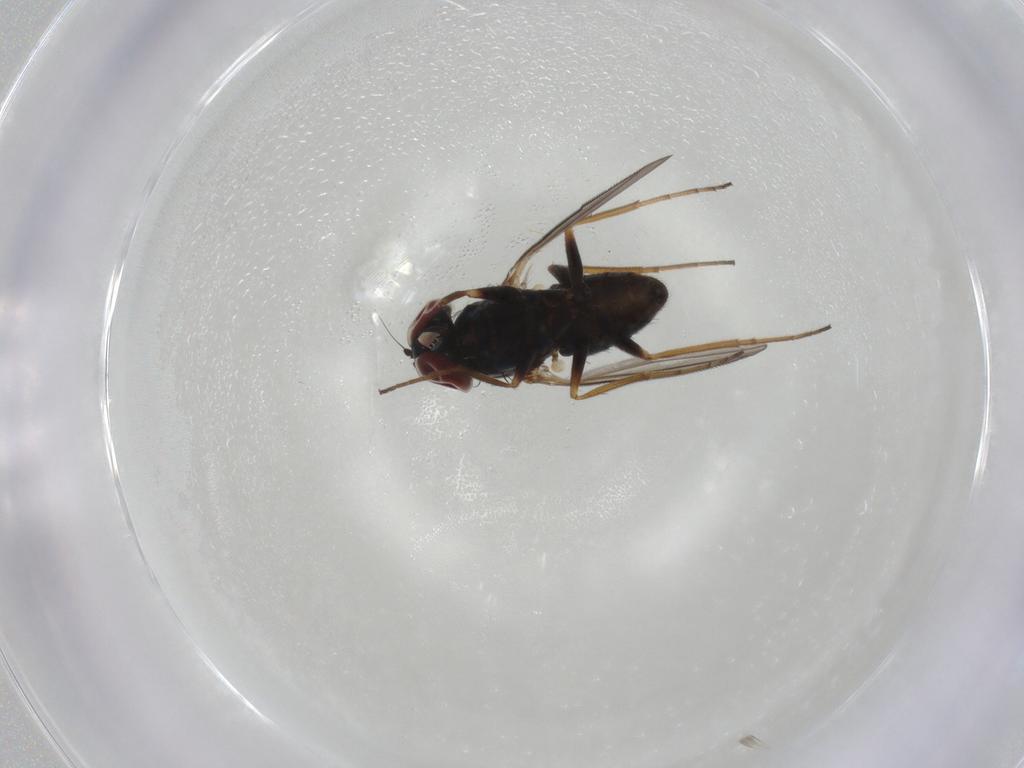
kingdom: Animalia
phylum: Arthropoda
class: Insecta
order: Diptera
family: Dolichopodidae
